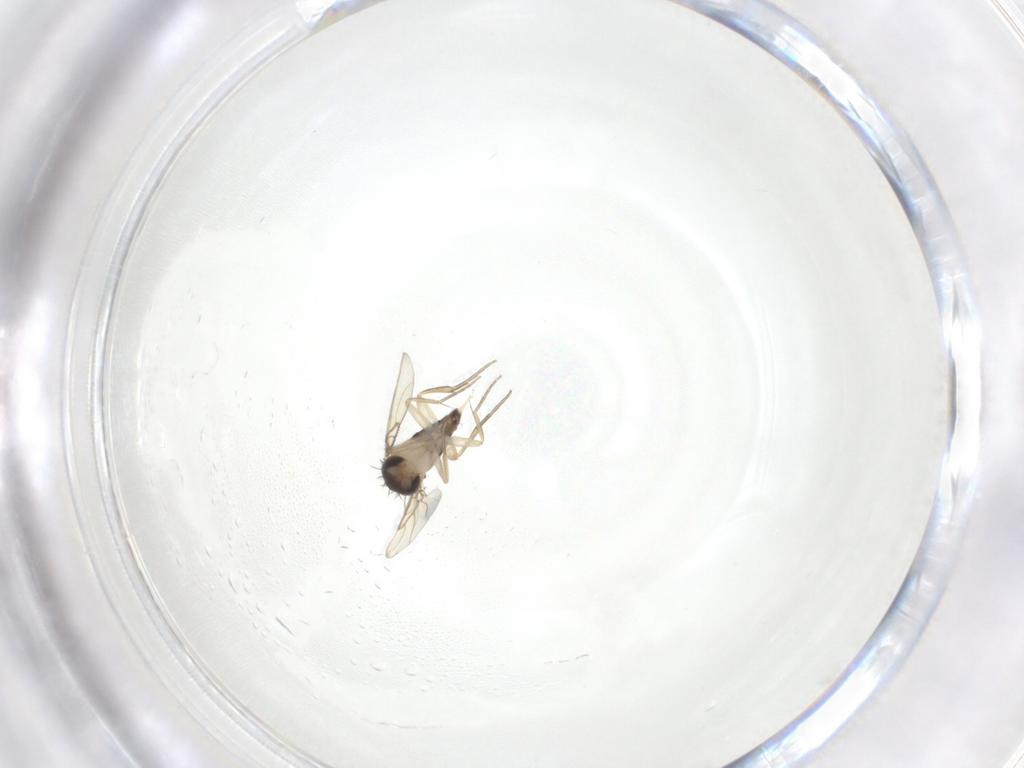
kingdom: Animalia
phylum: Arthropoda
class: Insecta
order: Diptera
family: Phoridae
